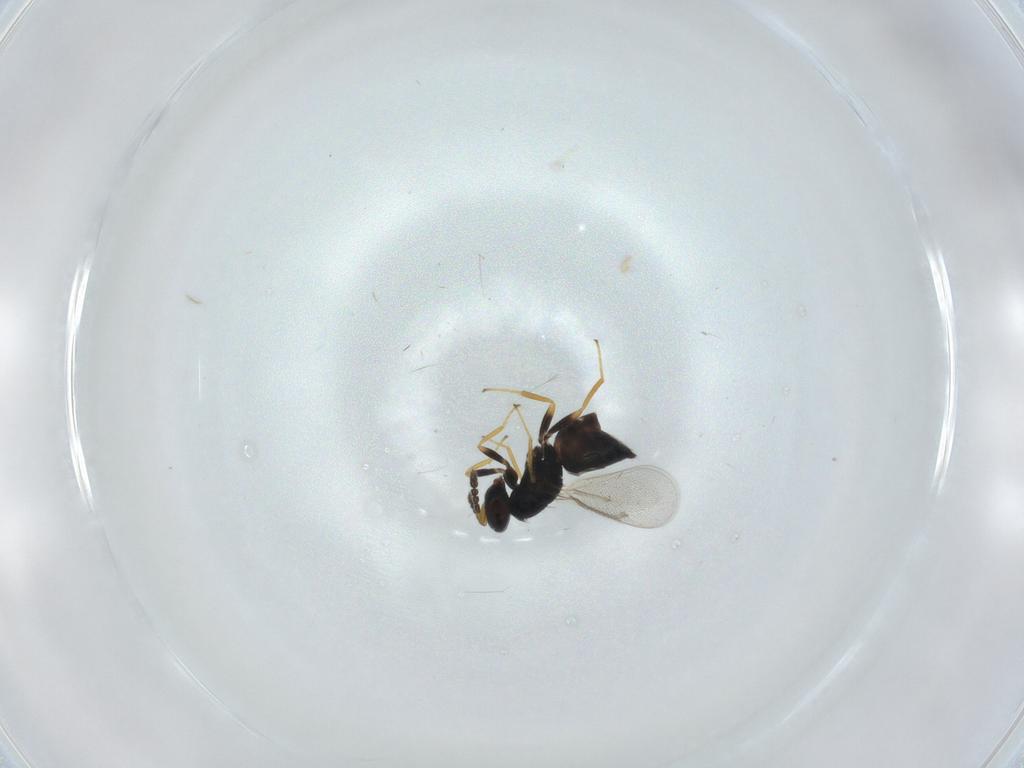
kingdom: Animalia
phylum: Arthropoda
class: Insecta
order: Hymenoptera
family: Eulophidae
